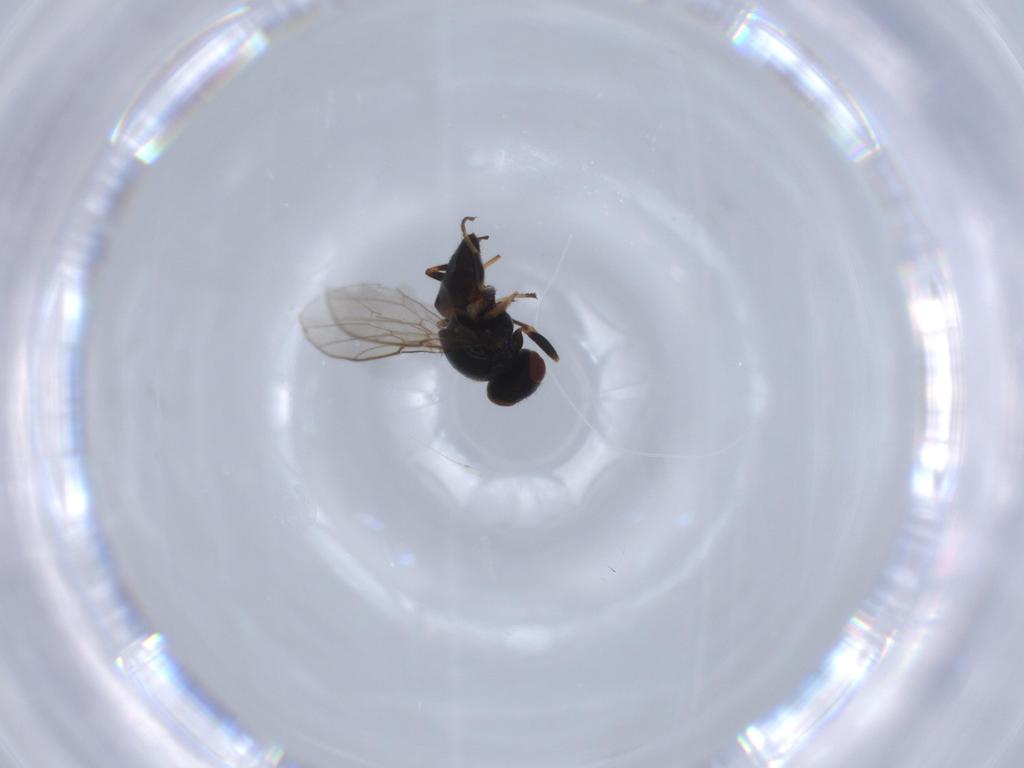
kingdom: Animalia
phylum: Arthropoda
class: Insecta
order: Diptera
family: Chloropidae
